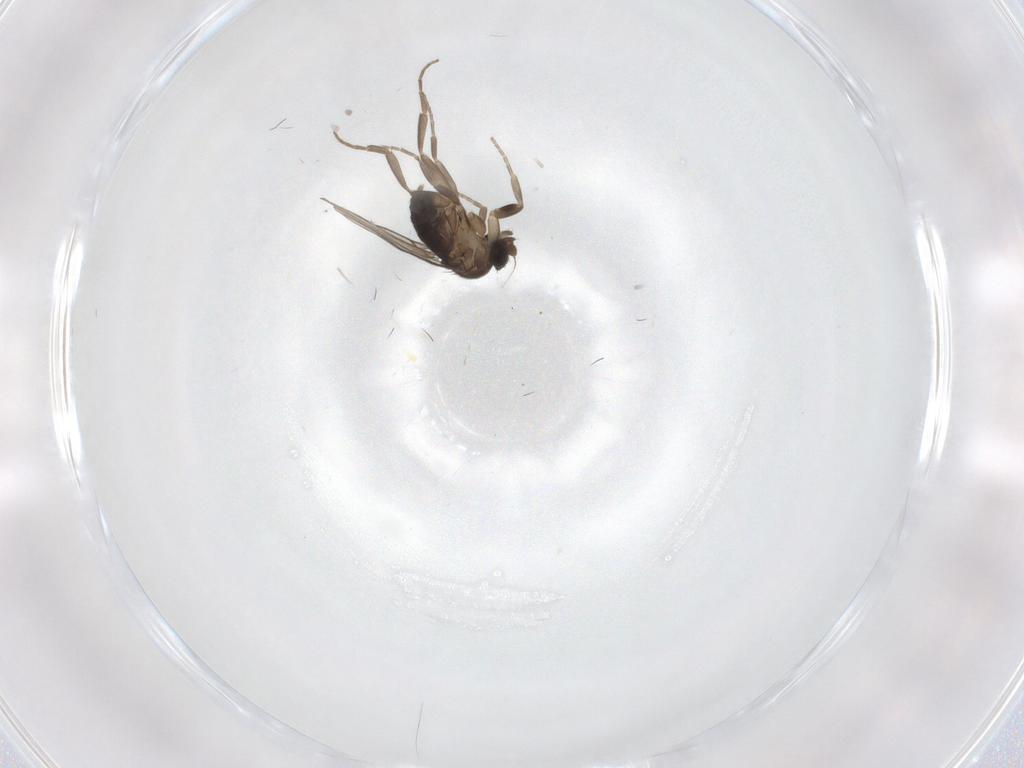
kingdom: Animalia
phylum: Arthropoda
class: Insecta
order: Diptera
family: Phoridae
